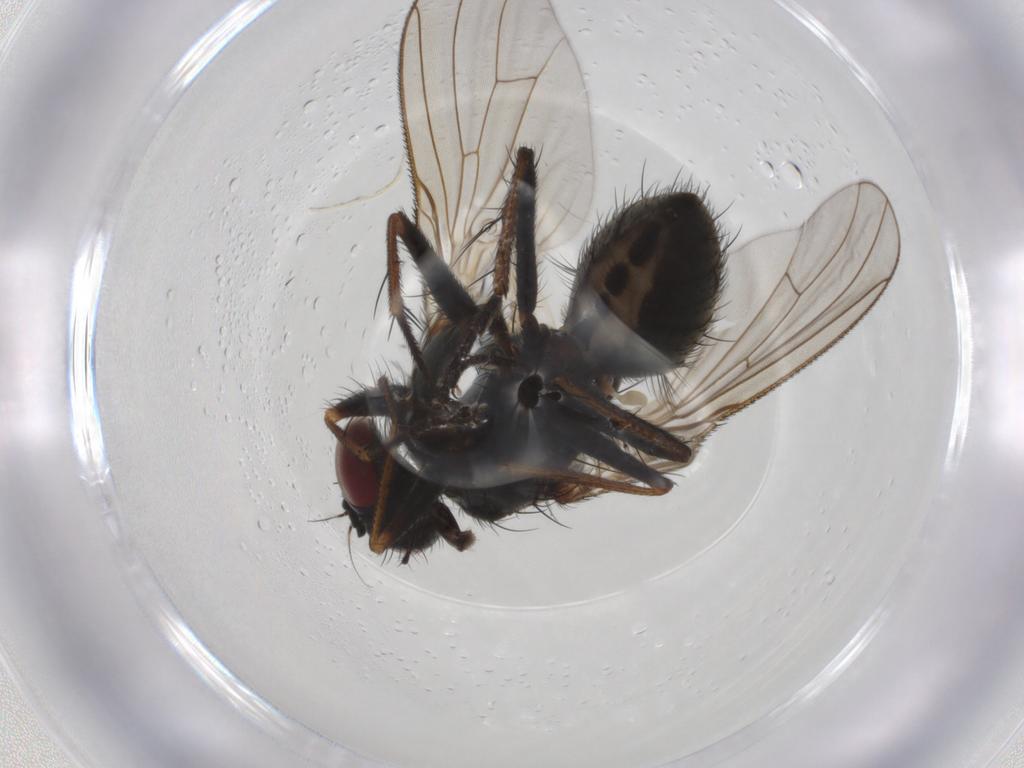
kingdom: Animalia
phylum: Arthropoda
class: Insecta
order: Diptera
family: Muscidae
